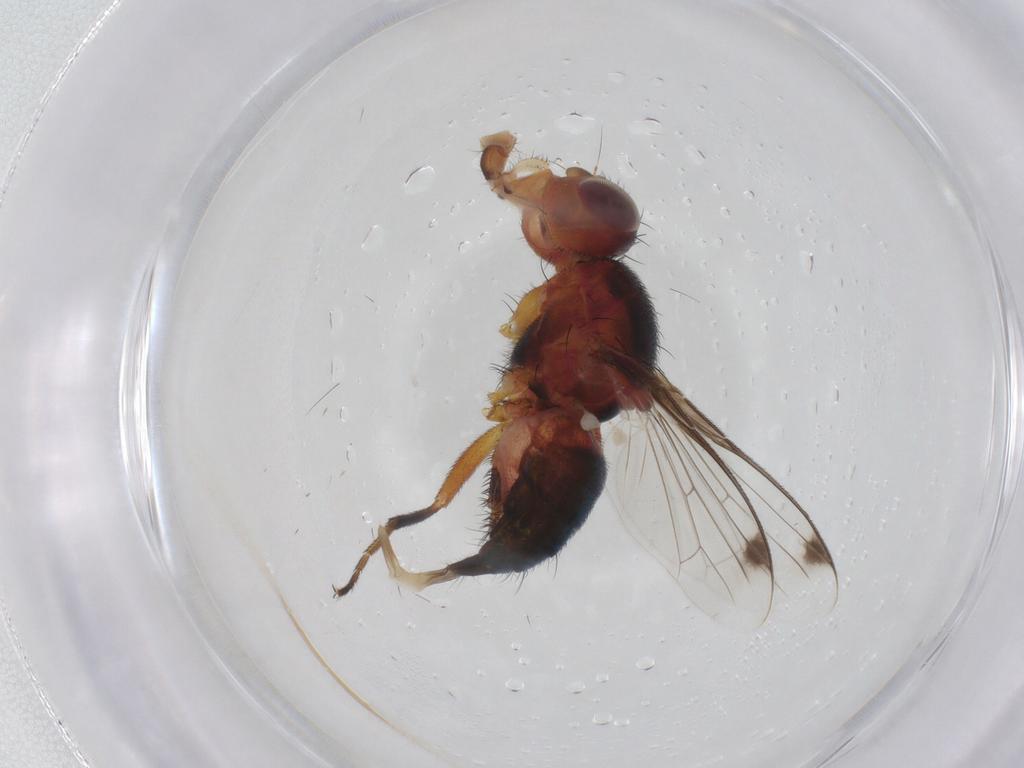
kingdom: Animalia
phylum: Arthropoda
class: Insecta
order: Diptera
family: Richardiidae
